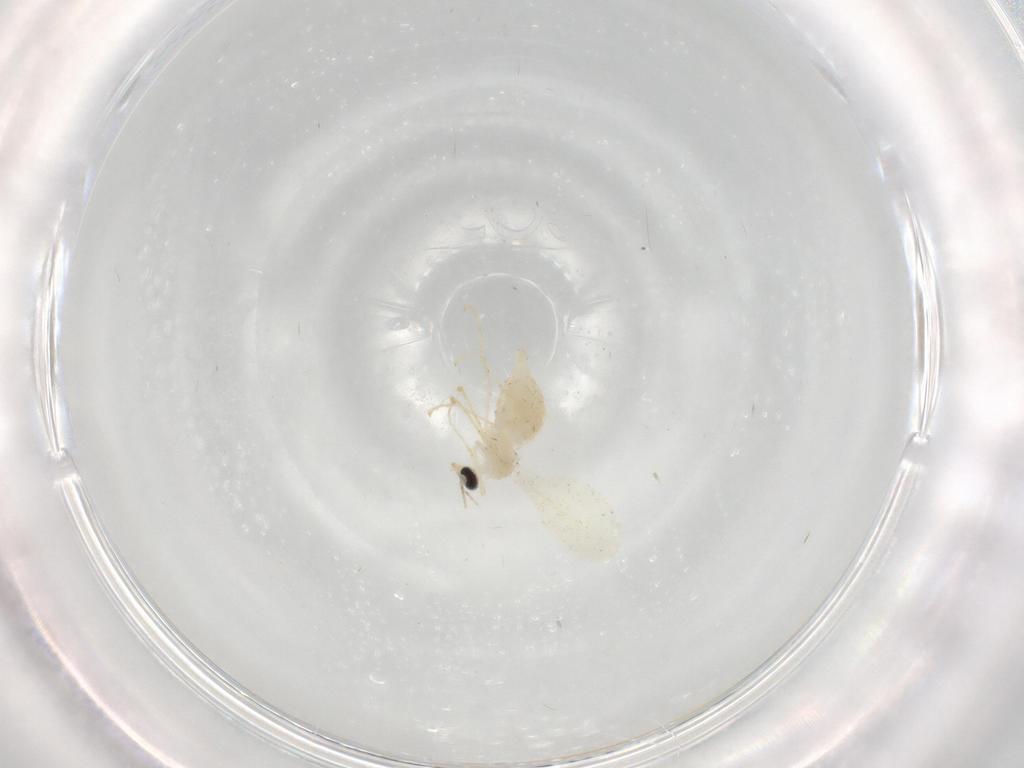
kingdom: Animalia
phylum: Arthropoda
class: Insecta
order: Diptera
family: Cecidomyiidae
